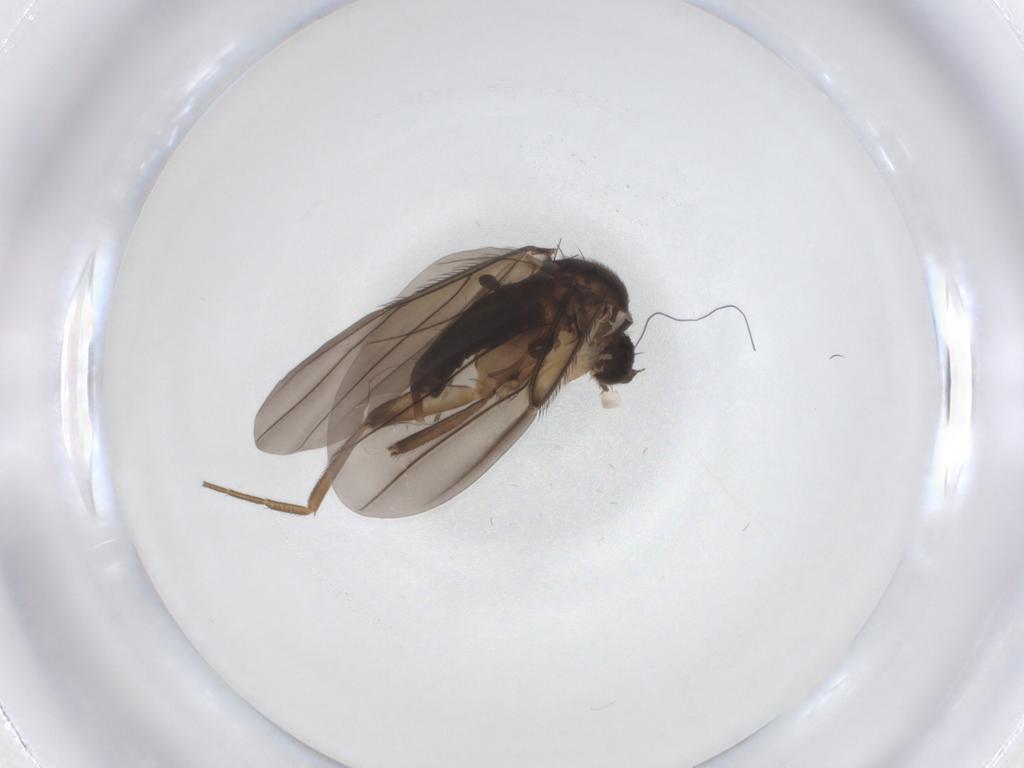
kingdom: Animalia
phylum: Arthropoda
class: Insecta
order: Diptera
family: Phoridae
